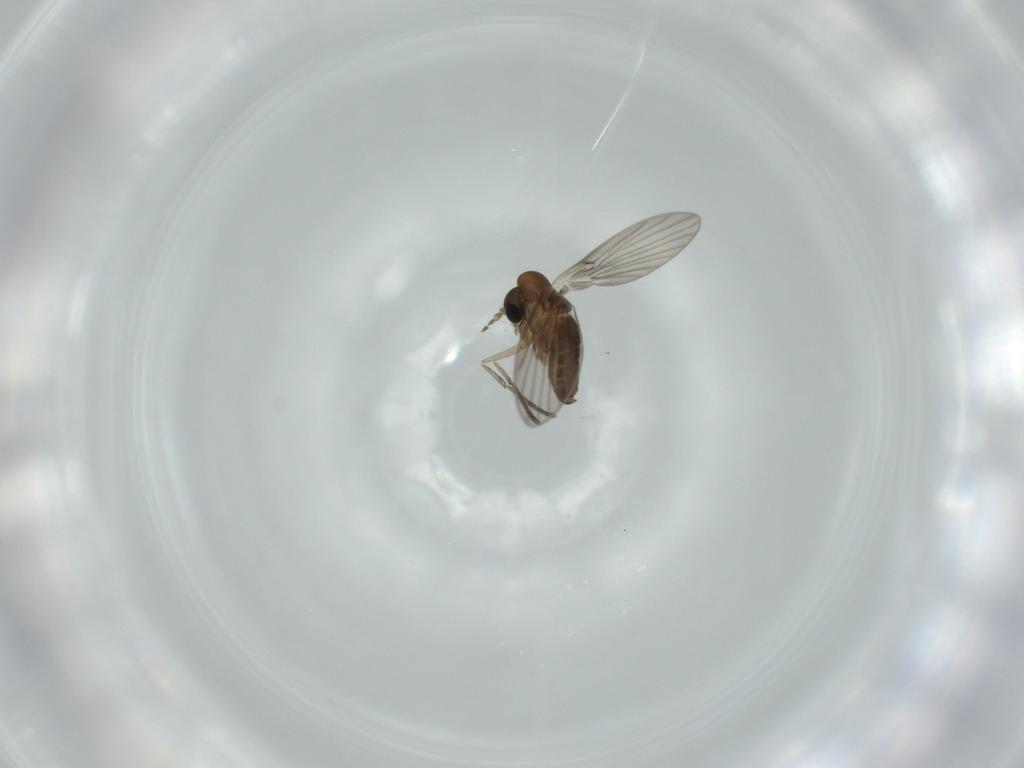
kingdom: Animalia
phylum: Arthropoda
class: Insecta
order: Diptera
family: Psychodidae
